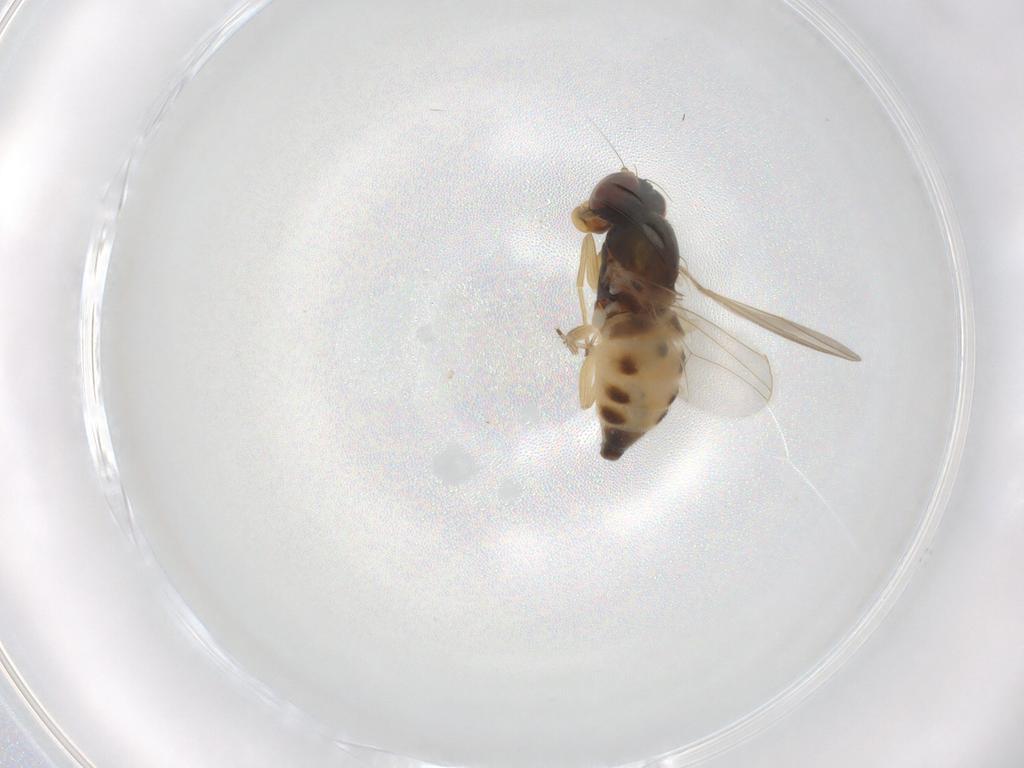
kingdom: Animalia
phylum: Arthropoda
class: Insecta
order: Diptera
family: Dolichopodidae
